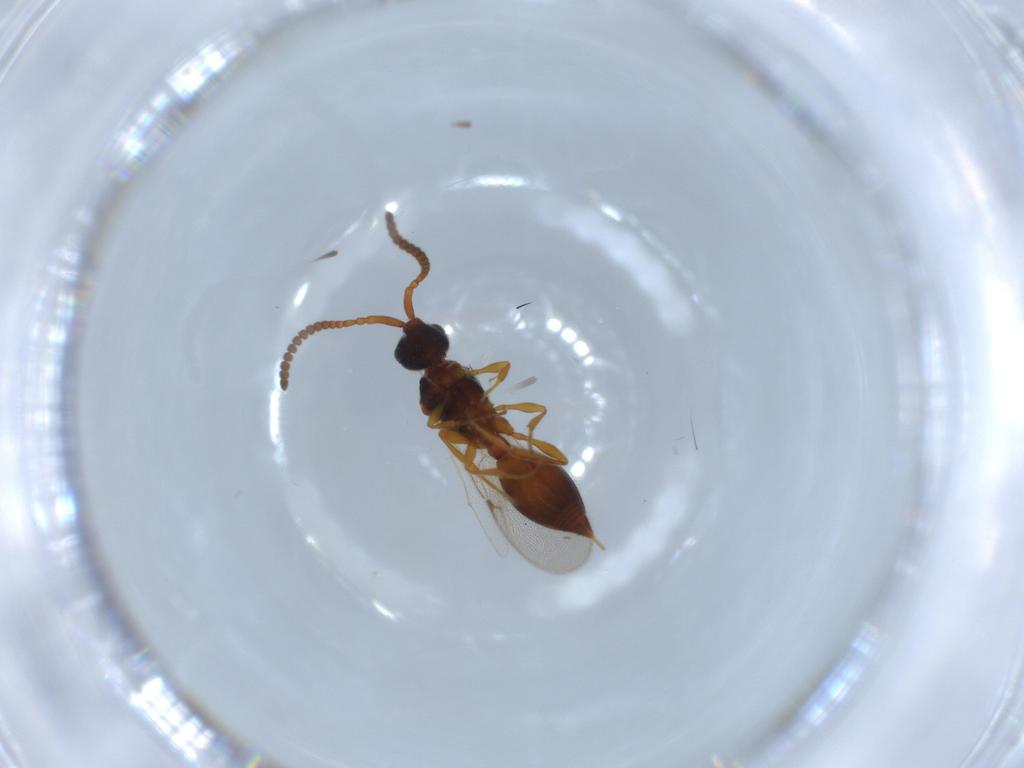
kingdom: Animalia
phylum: Arthropoda
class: Insecta
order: Hymenoptera
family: Diapriidae
